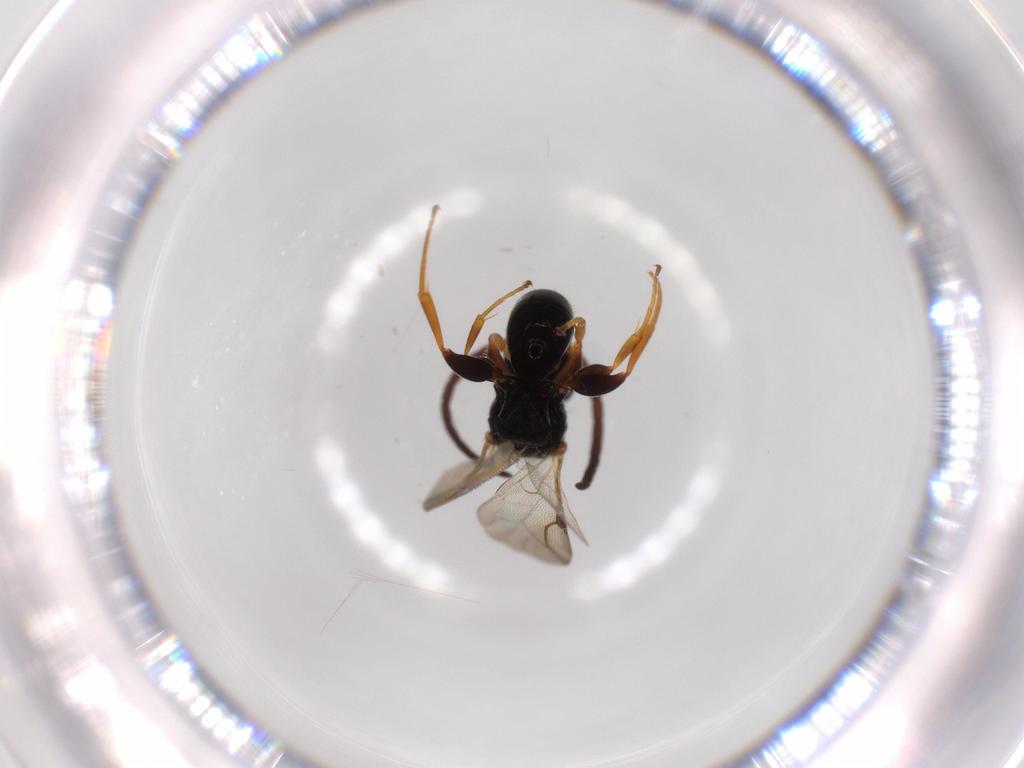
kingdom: Animalia
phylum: Arthropoda
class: Insecta
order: Hymenoptera
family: Bethylidae
